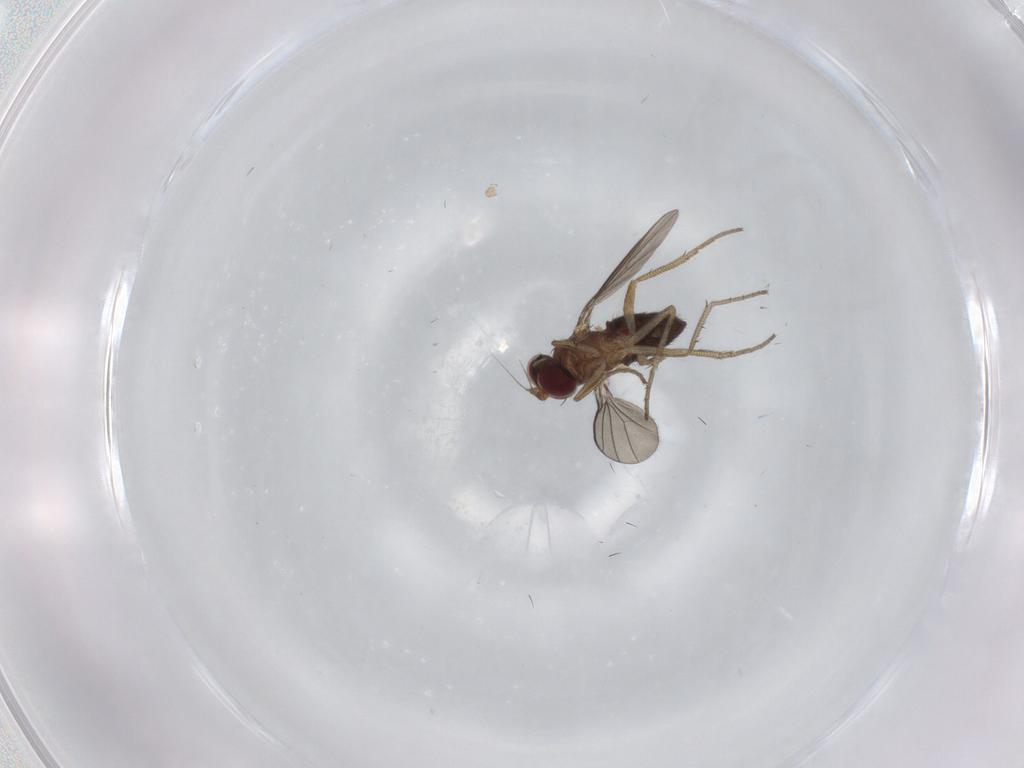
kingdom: Animalia
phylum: Arthropoda
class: Insecta
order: Diptera
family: Dolichopodidae
